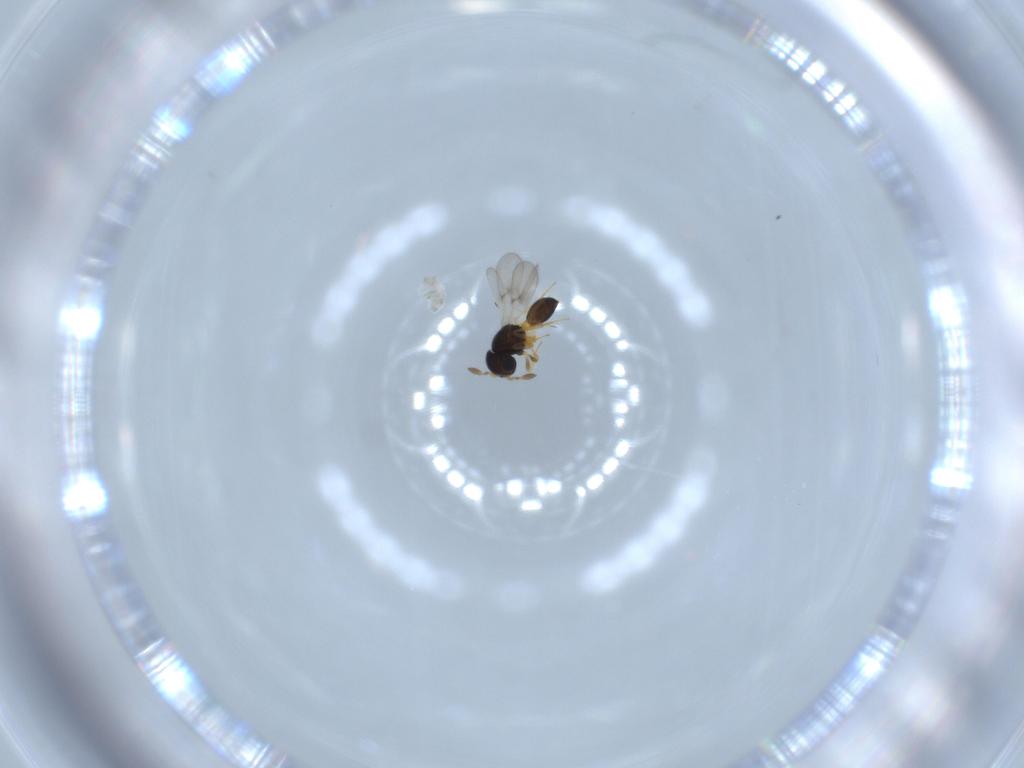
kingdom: Animalia
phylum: Arthropoda
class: Insecta
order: Hymenoptera
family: Scelionidae
